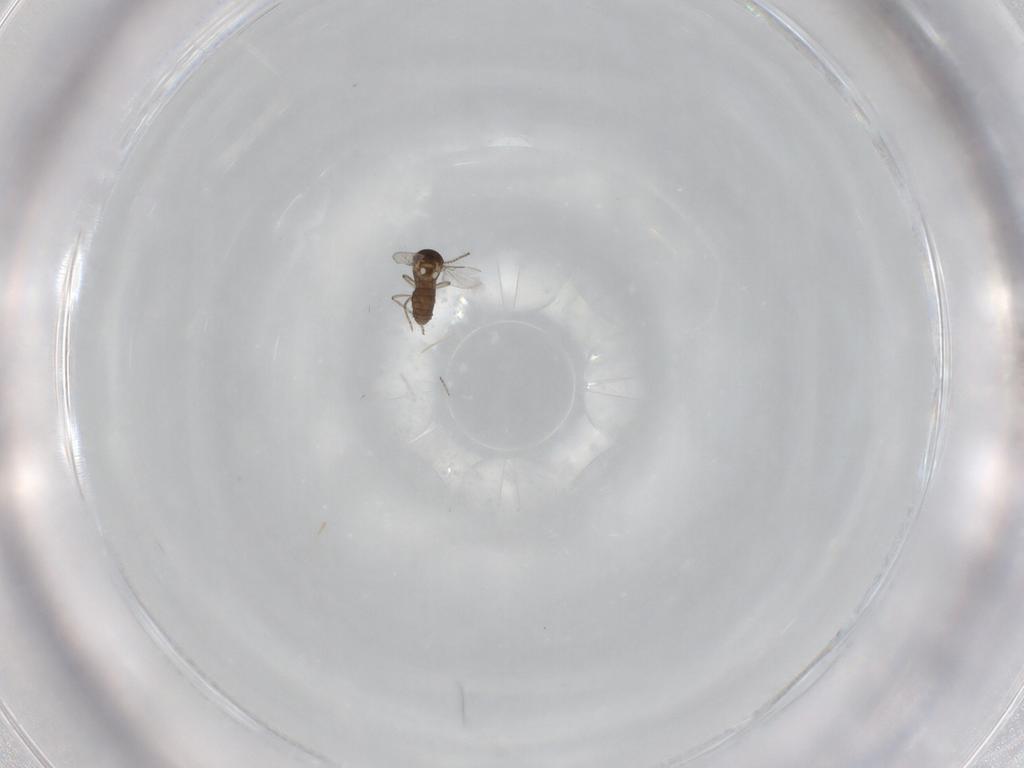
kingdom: Animalia
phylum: Arthropoda
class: Insecta
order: Diptera
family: Ceratopogonidae
